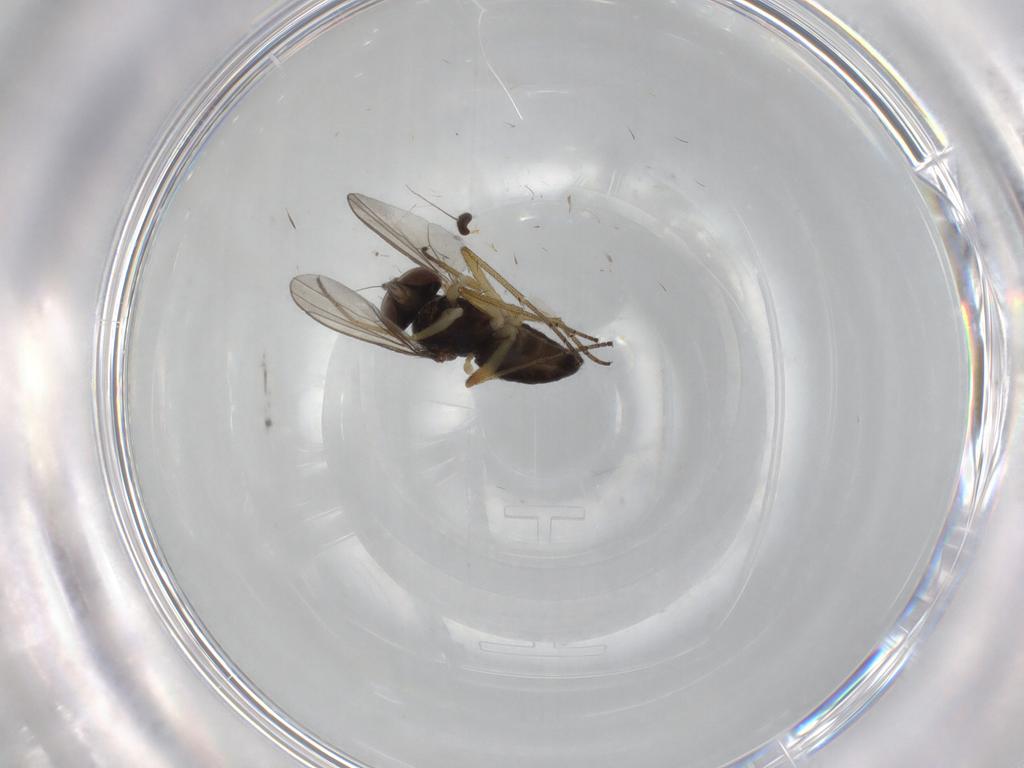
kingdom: Animalia
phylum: Arthropoda
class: Insecta
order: Diptera
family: Dolichopodidae
